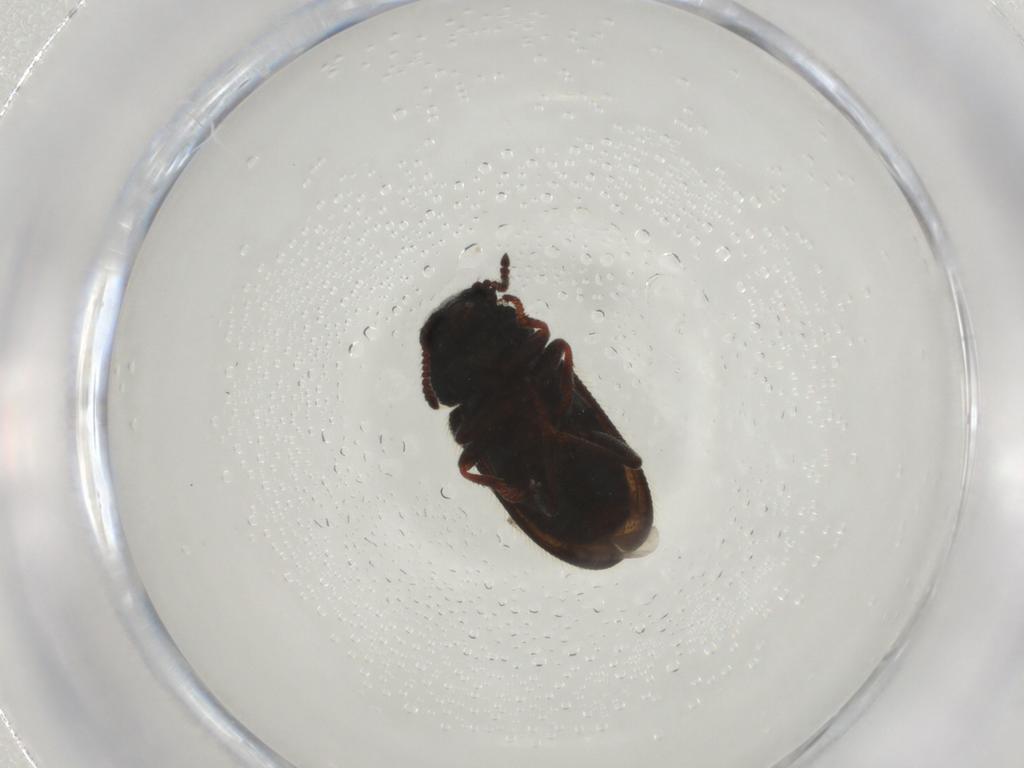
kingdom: Animalia
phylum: Arthropoda
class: Insecta
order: Coleoptera
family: Melyridae
